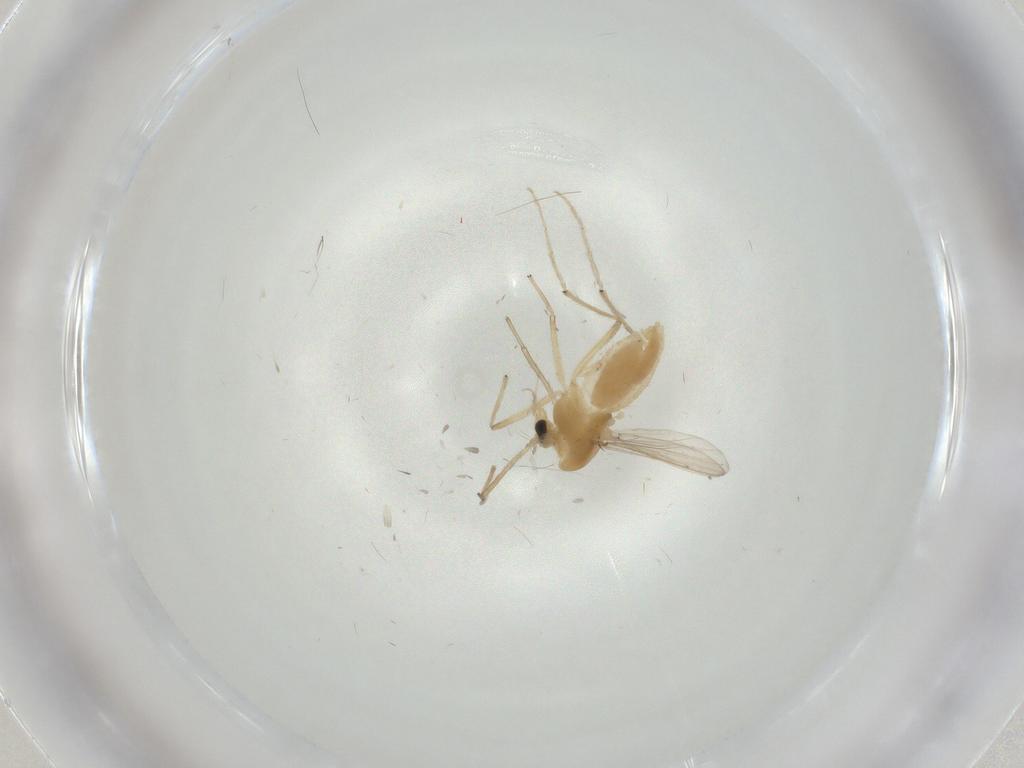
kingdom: Animalia
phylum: Arthropoda
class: Insecta
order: Diptera
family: Chironomidae
